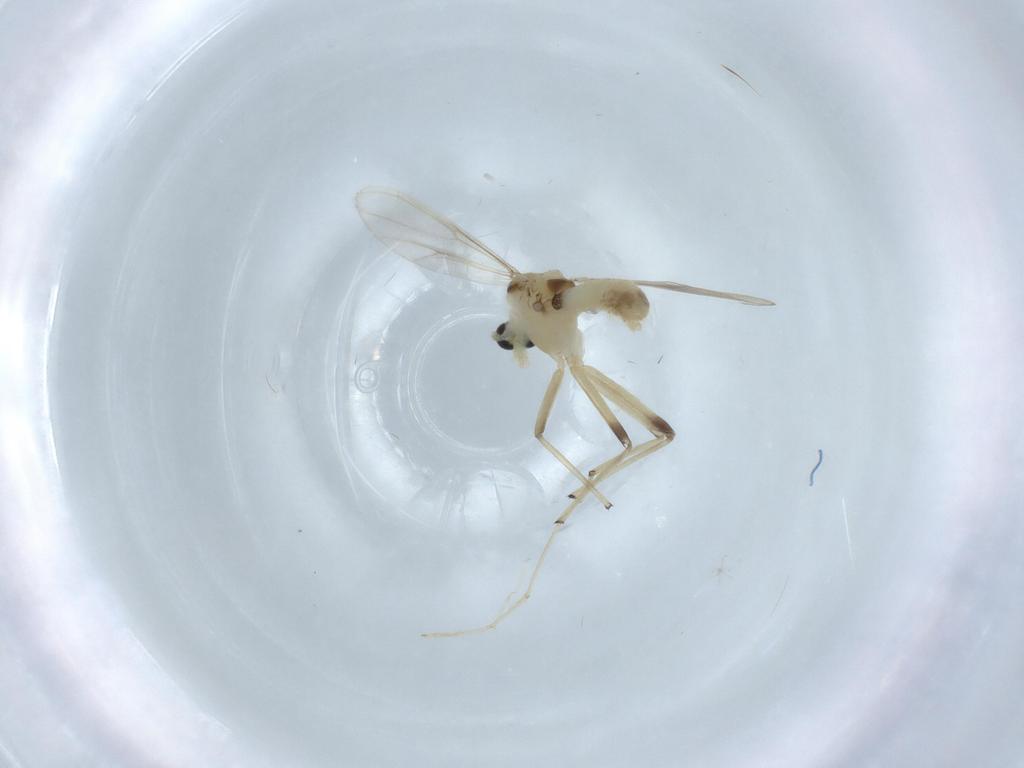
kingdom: Animalia
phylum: Arthropoda
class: Insecta
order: Diptera
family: Chironomidae
